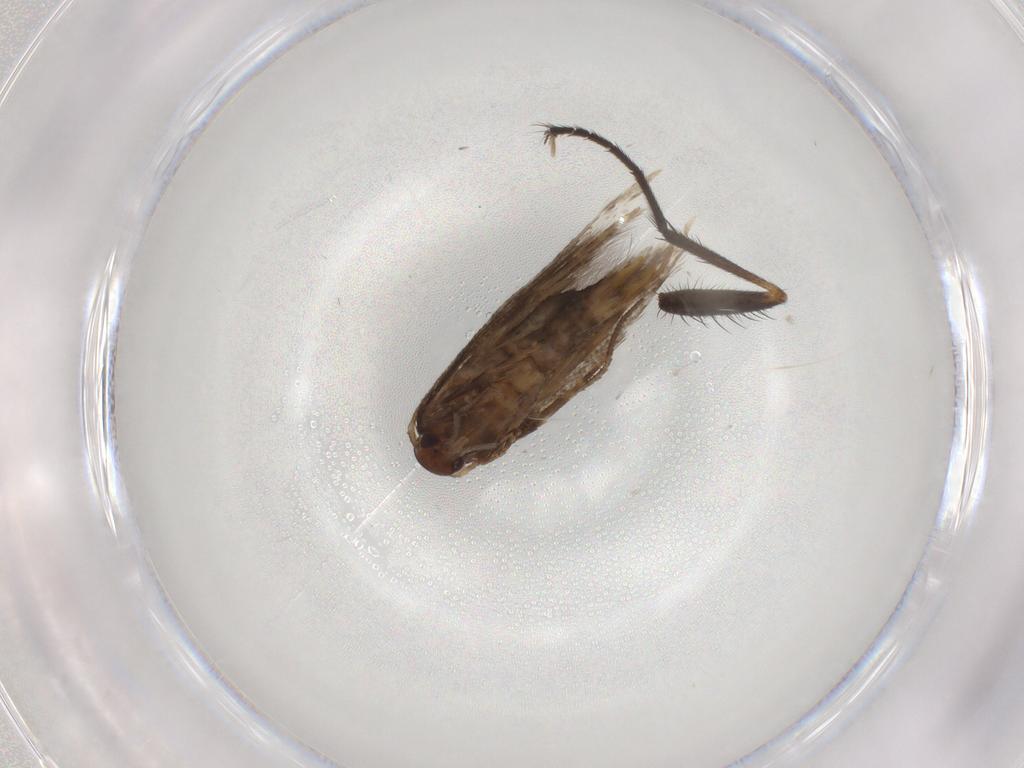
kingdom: Animalia
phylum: Arthropoda
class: Insecta
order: Lepidoptera
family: Elachistidae
